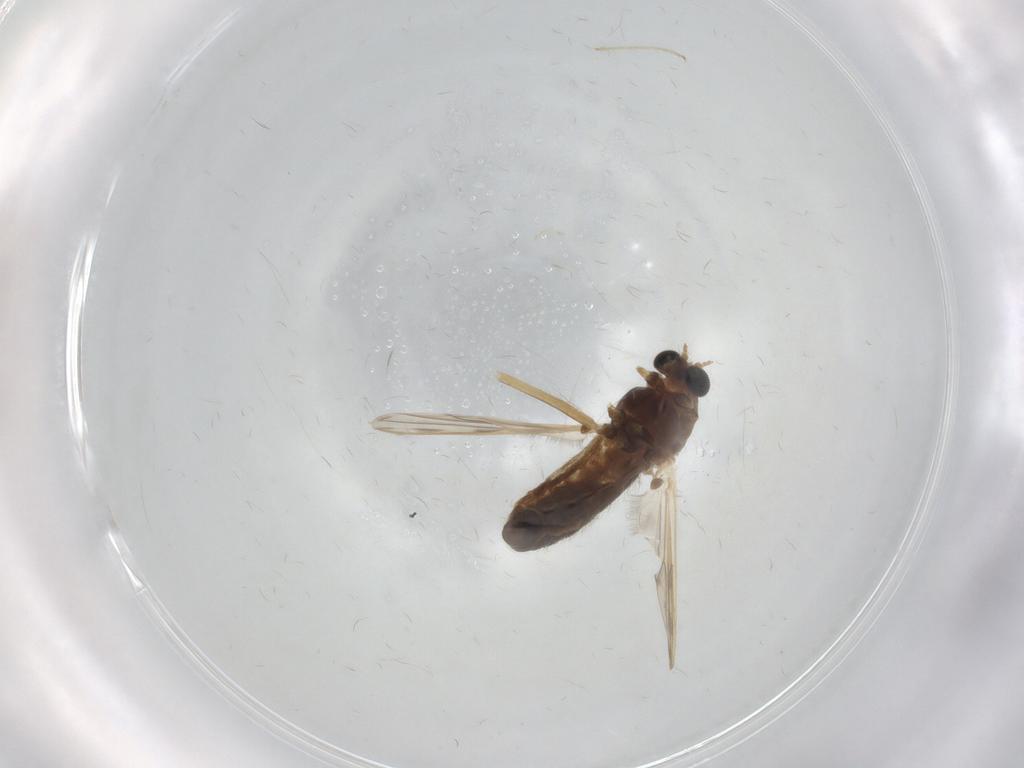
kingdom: Animalia
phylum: Arthropoda
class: Insecta
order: Diptera
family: Chironomidae
